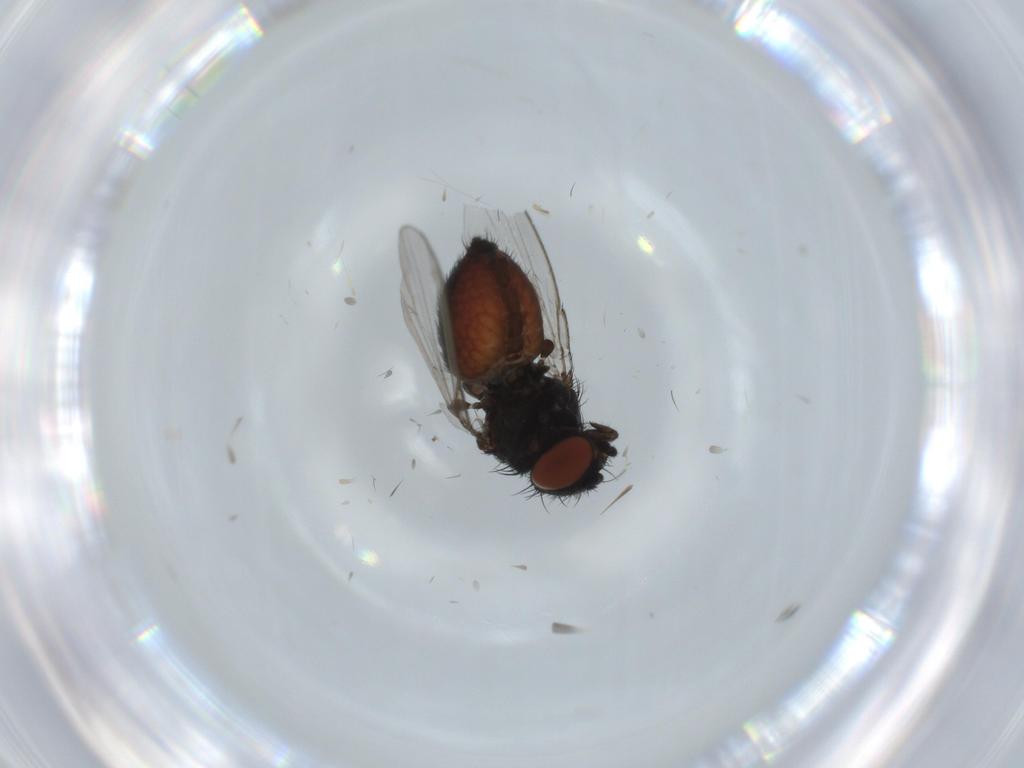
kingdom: Animalia
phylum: Arthropoda
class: Insecta
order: Diptera
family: Milichiidae
